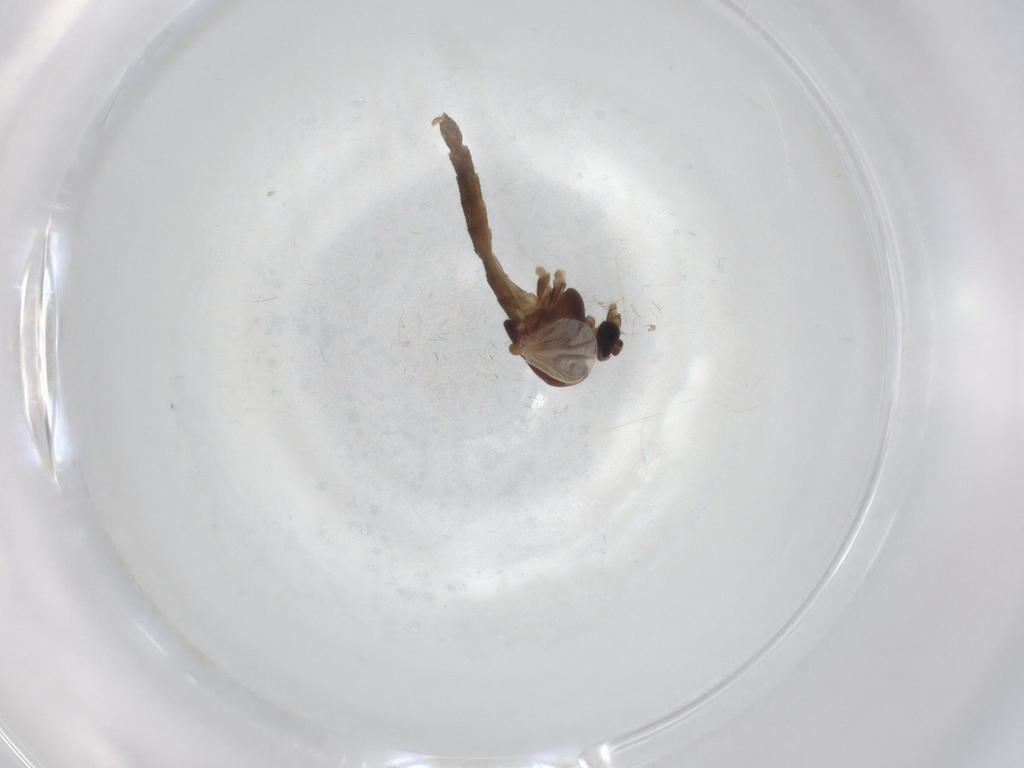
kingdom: Animalia
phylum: Arthropoda
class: Insecta
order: Diptera
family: Chironomidae
